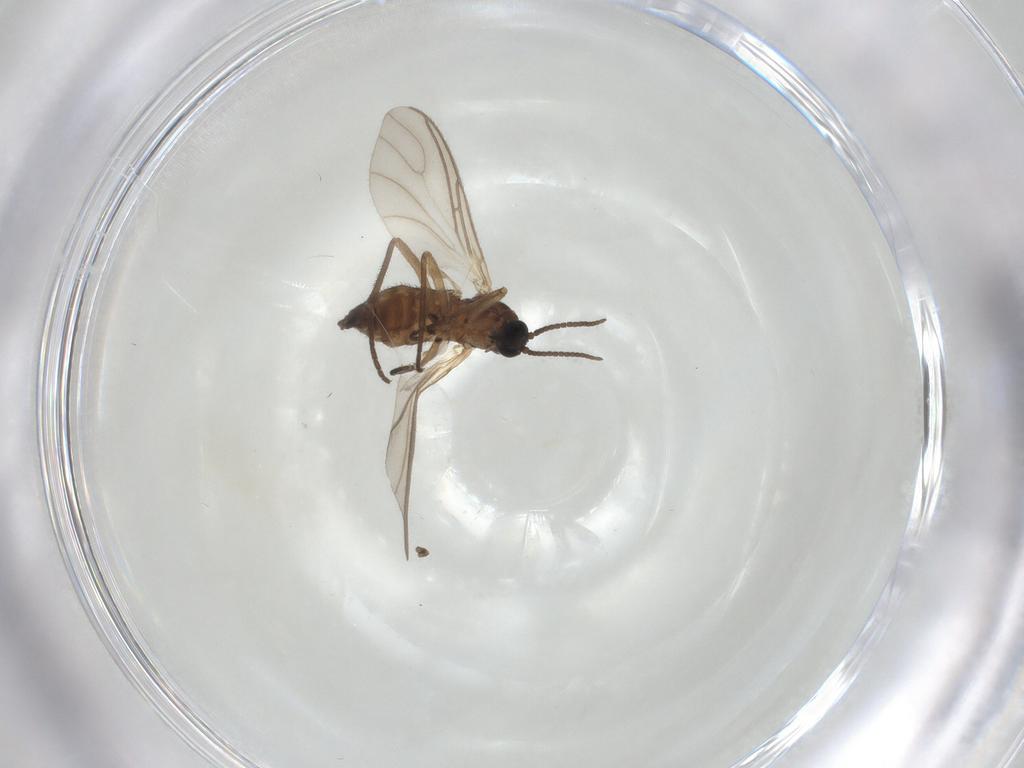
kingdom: Animalia
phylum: Arthropoda
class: Insecta
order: Diptera
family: Sciaridae
